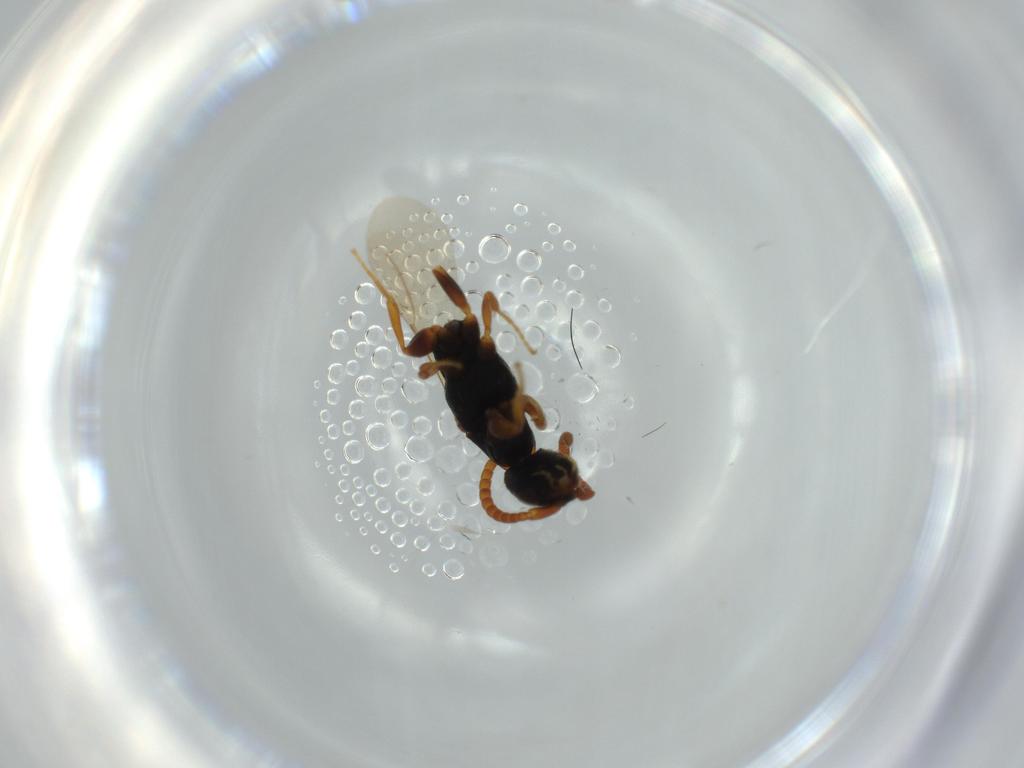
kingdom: Animalia
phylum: Arthropoda
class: Insecta
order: Hymenoptera
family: Bethylidae
